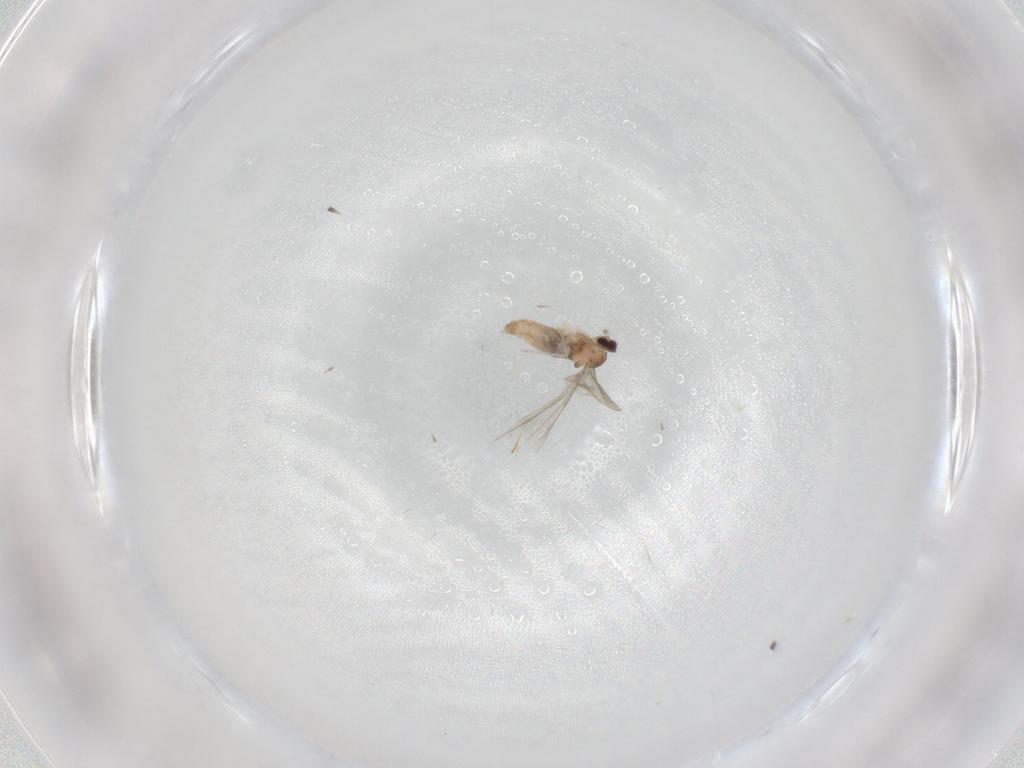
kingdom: Animalia
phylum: Arthropoda
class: Insecta
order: Diptera
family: Cecidomyiidae
